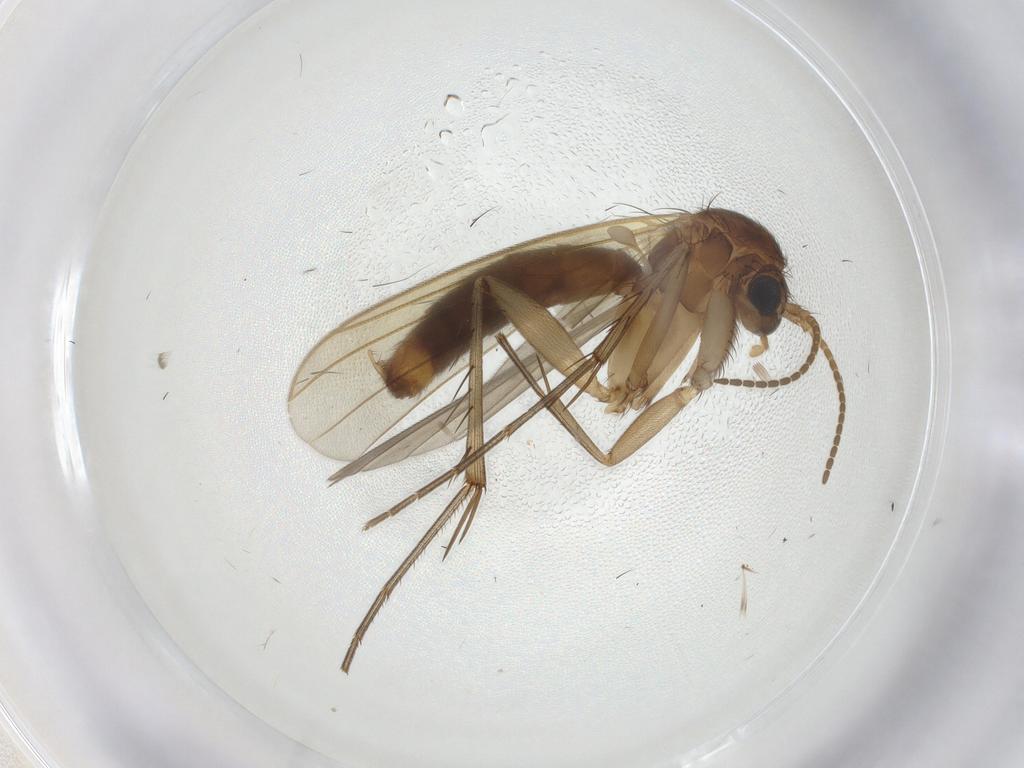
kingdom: Animalia
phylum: Arthropoda
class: Insecta
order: Diptera
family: Mycetophilidae
